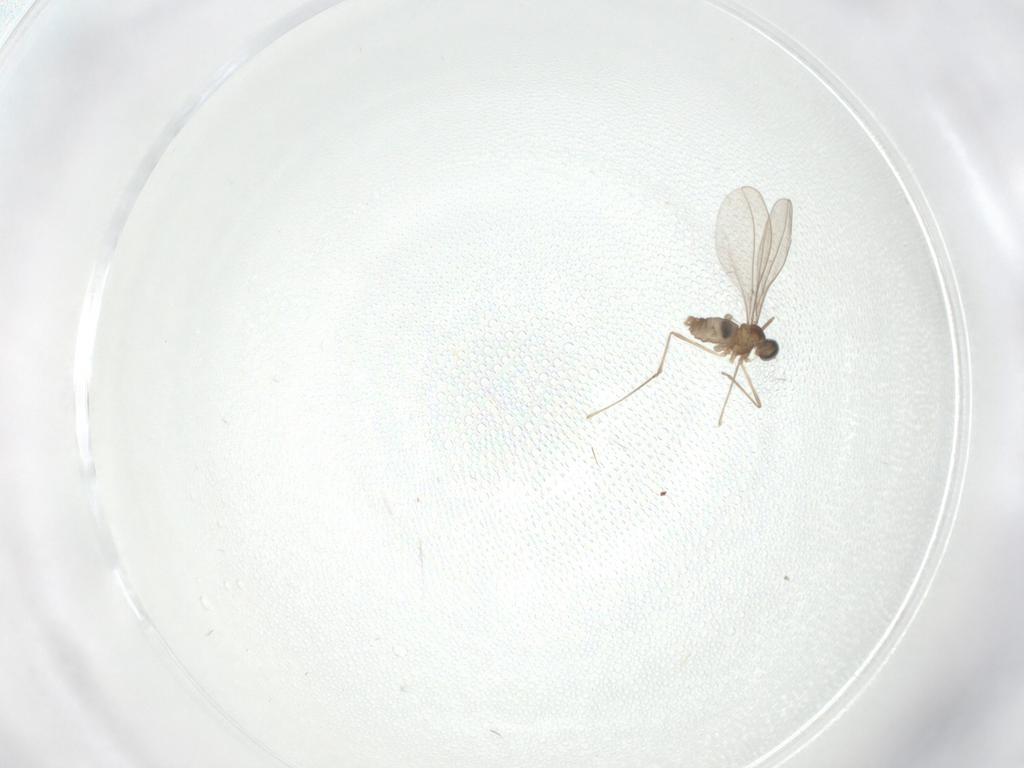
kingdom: Animalia
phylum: Arthropoda
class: Insecta
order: Diptera
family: Cecidomyiidae
